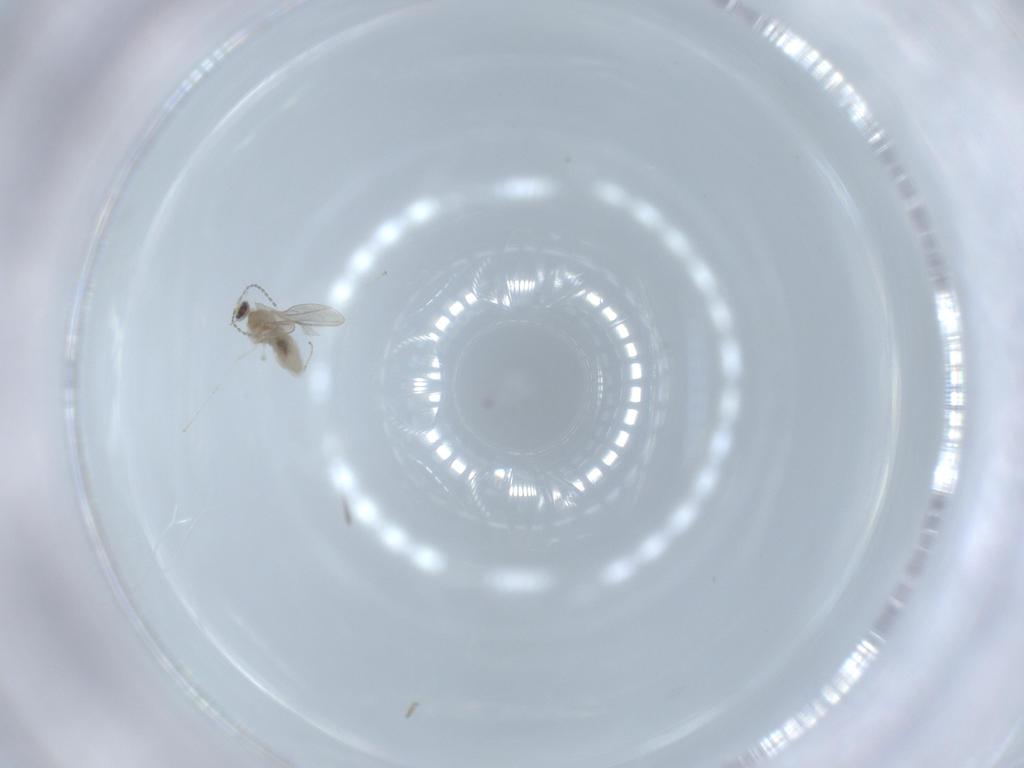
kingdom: Animalia
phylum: Arthropoda
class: Insecta
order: Diptera
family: Cecidomyiidae
